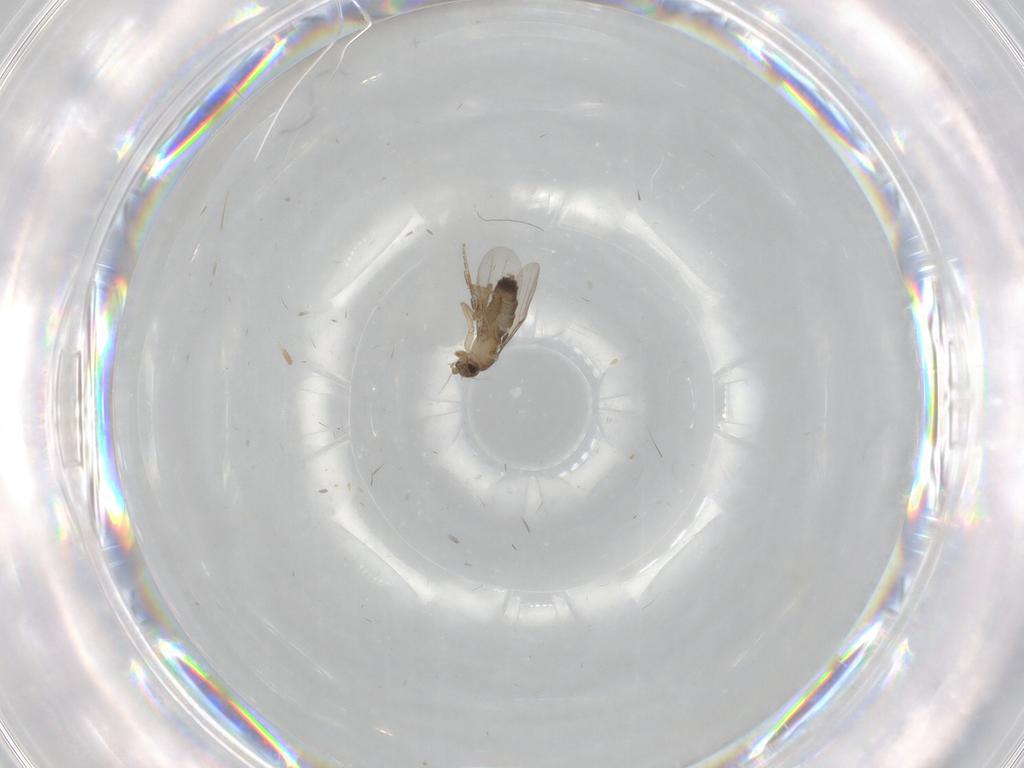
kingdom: Animalia
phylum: Arthropoda
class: Insecta
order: Diptera
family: Phoridae
